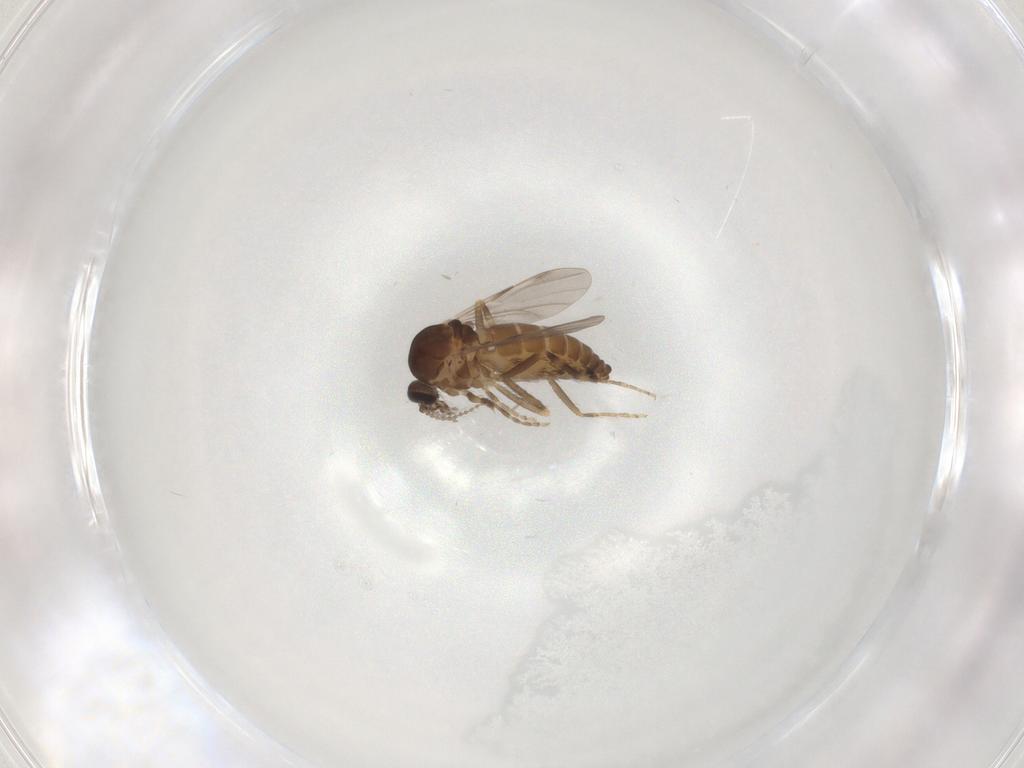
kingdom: Animalia
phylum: Arthropoda
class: Insecta
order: Diptera
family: Ceratopogonidae
